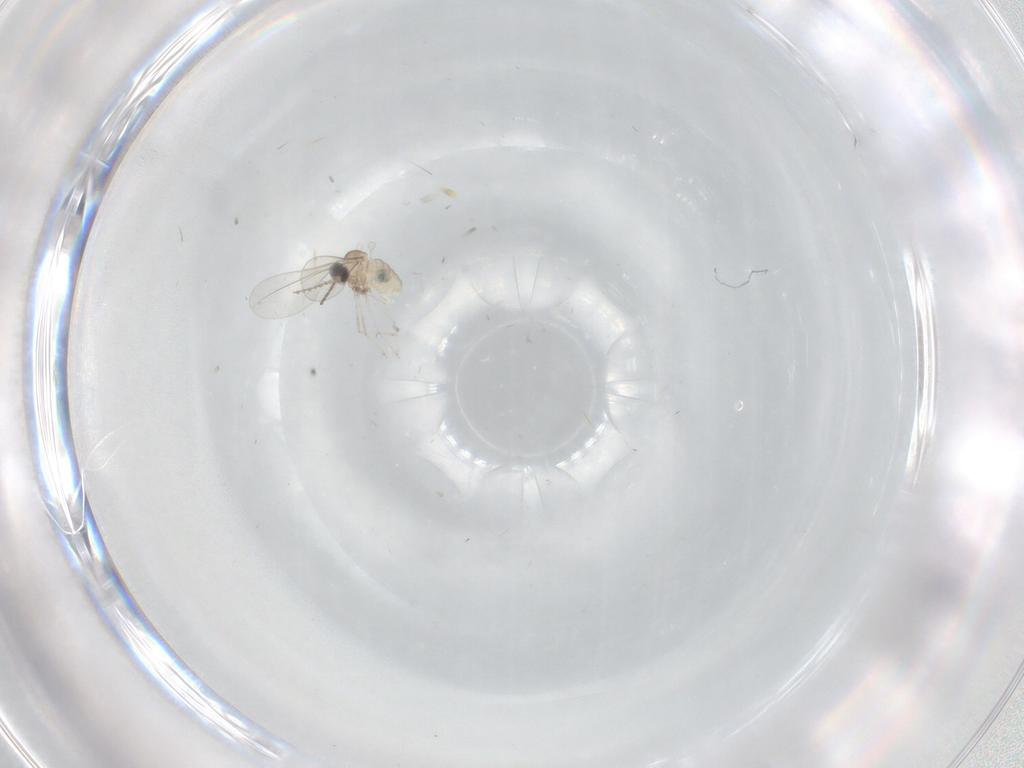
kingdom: Animalia
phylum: Arthropoda
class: Insecta
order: Diptera
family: Cecidomyiidae
